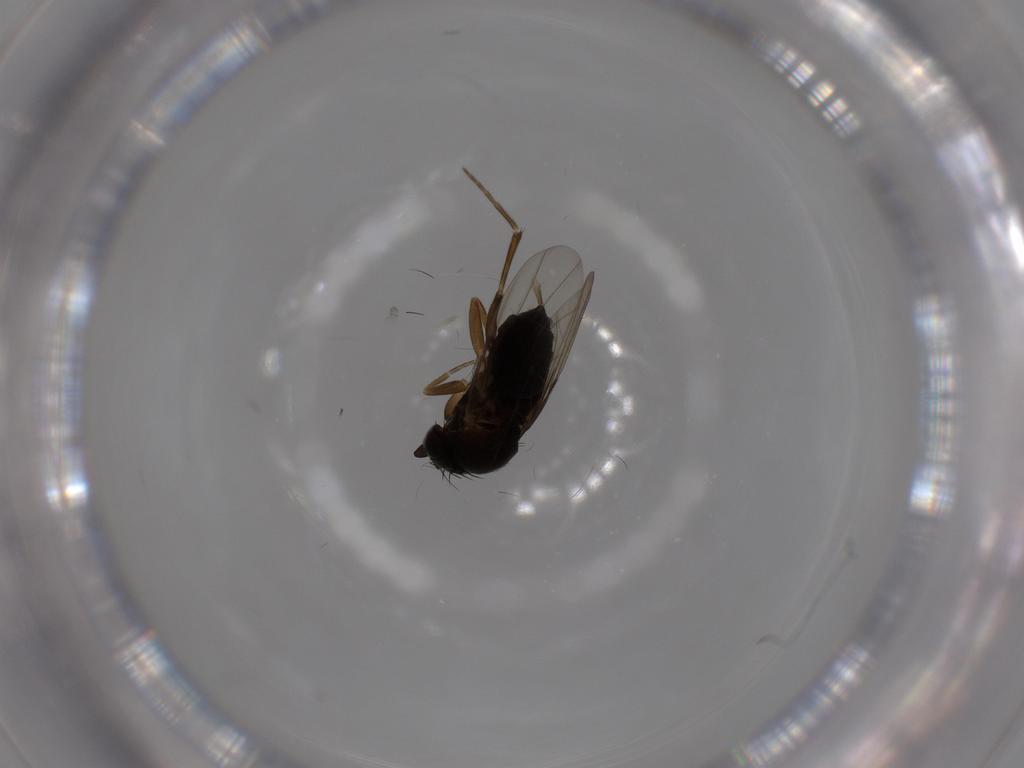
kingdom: Animalia
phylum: Arthropoda
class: Insecta
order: Diptera
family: Phoridae
